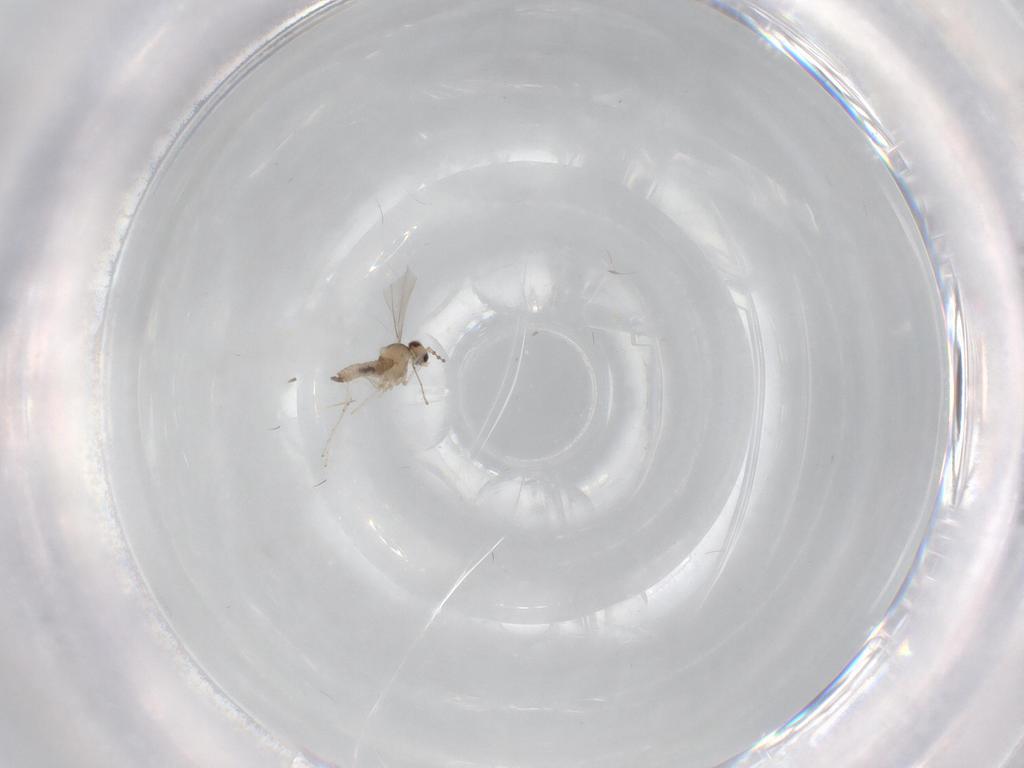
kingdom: Animalia
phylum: Arthropoda
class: Insecta
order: Diptera
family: Cecidomyiidae
